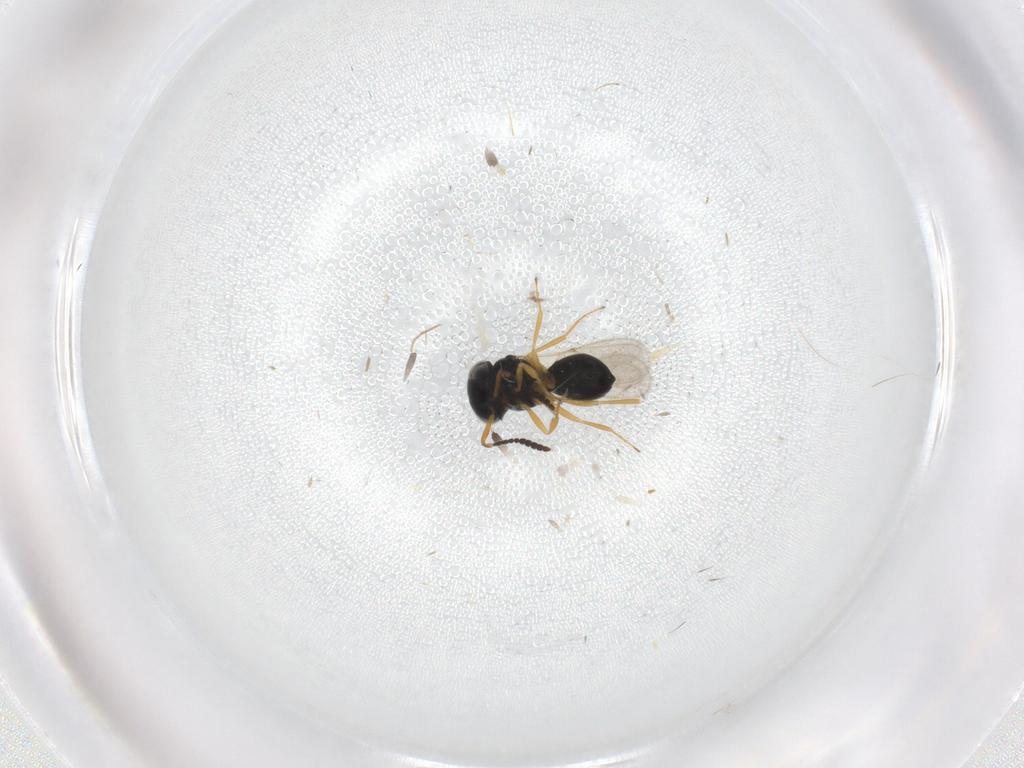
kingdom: Animalia
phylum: Arthropoda
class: Insecta
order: Hymenoptera
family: Scelionidae
